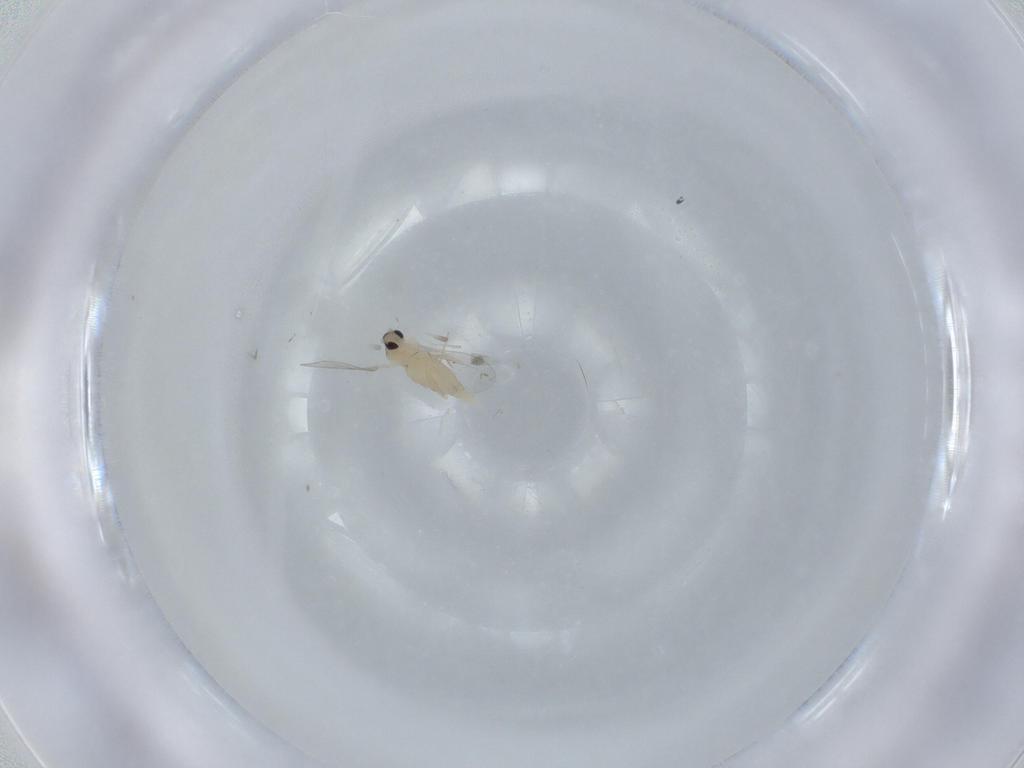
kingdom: Animalia
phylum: Arthropoda
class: Insecta
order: Diptera
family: Cecidomyiidae
